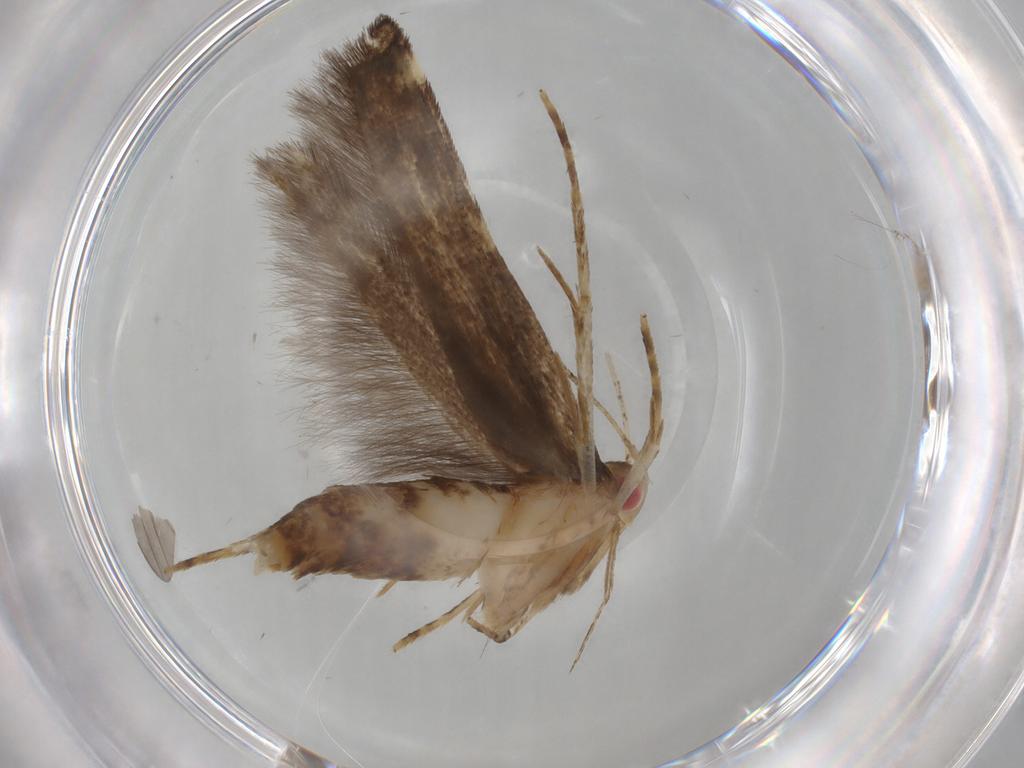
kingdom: Animalia
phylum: Arthropoda
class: Insecta
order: Lepidoptera
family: Cosmopterigidae
